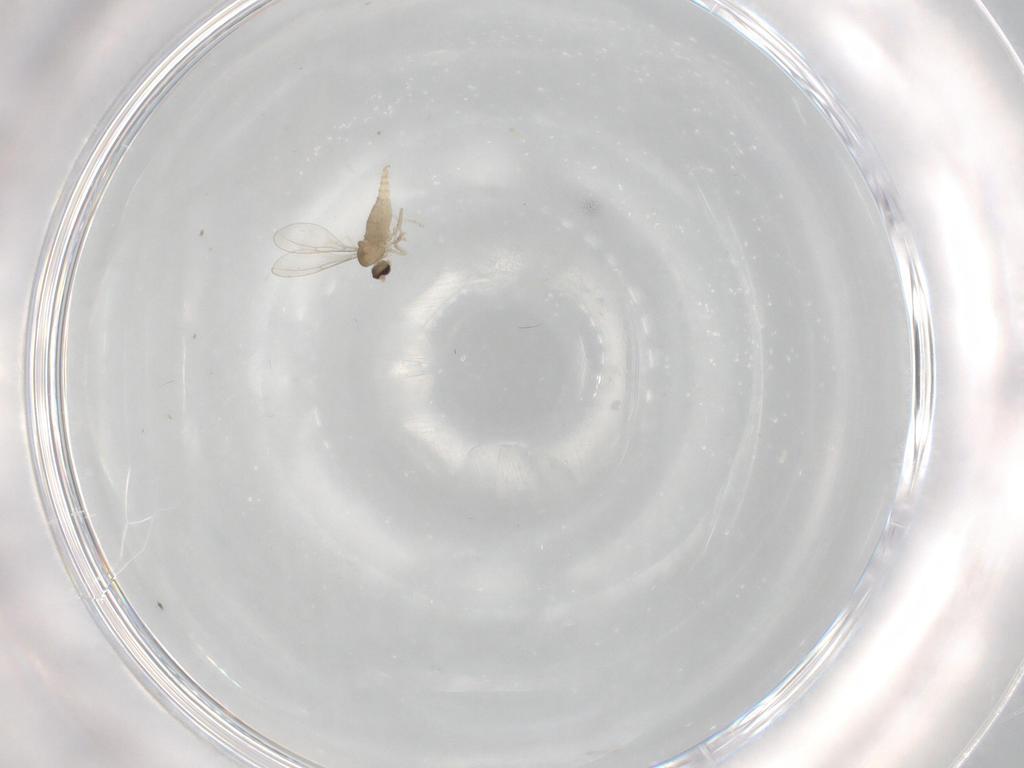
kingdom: Animalia
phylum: Arthropoda
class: Insecta
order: Diptera
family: Cecidomyiidae
